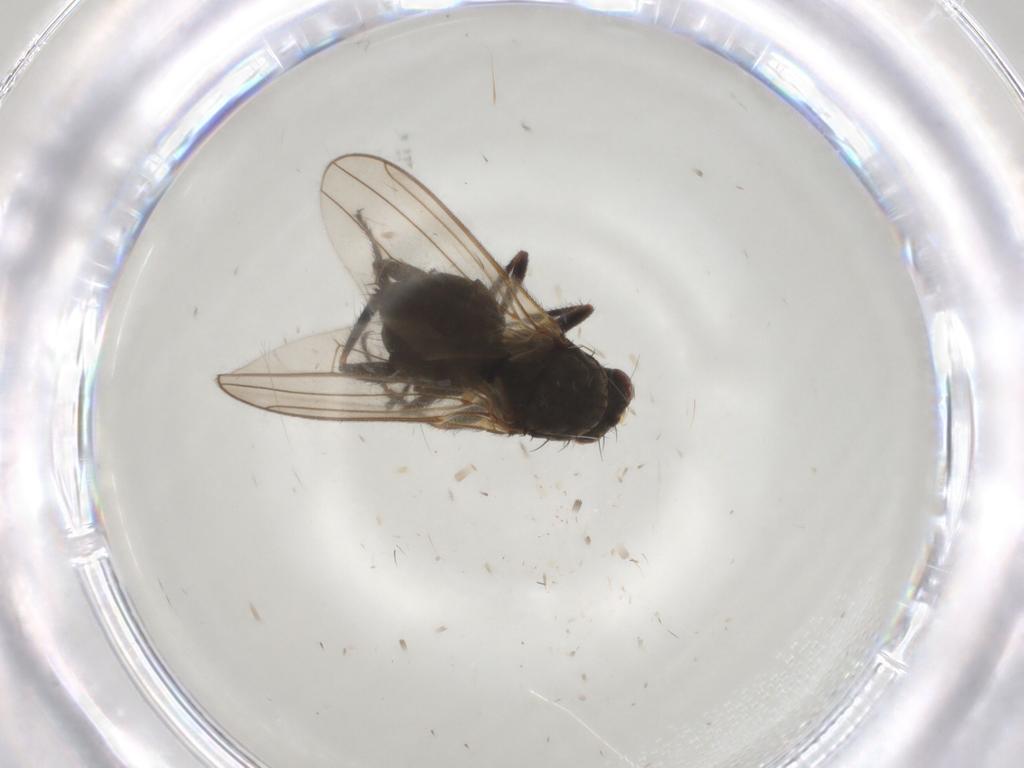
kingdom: Animalia
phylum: Arthropoda
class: Insecta
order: Diptera
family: Sphaeroceridae
